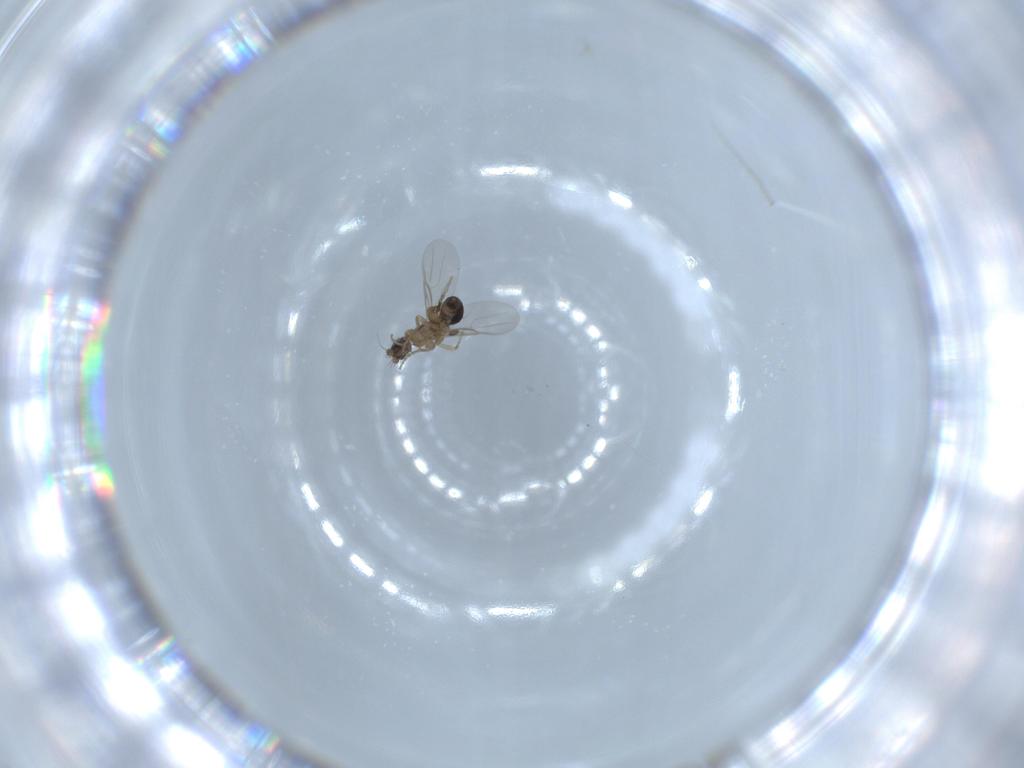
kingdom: Animalia
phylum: Arthropoda
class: Insecta
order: Diptera
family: Phoridae
